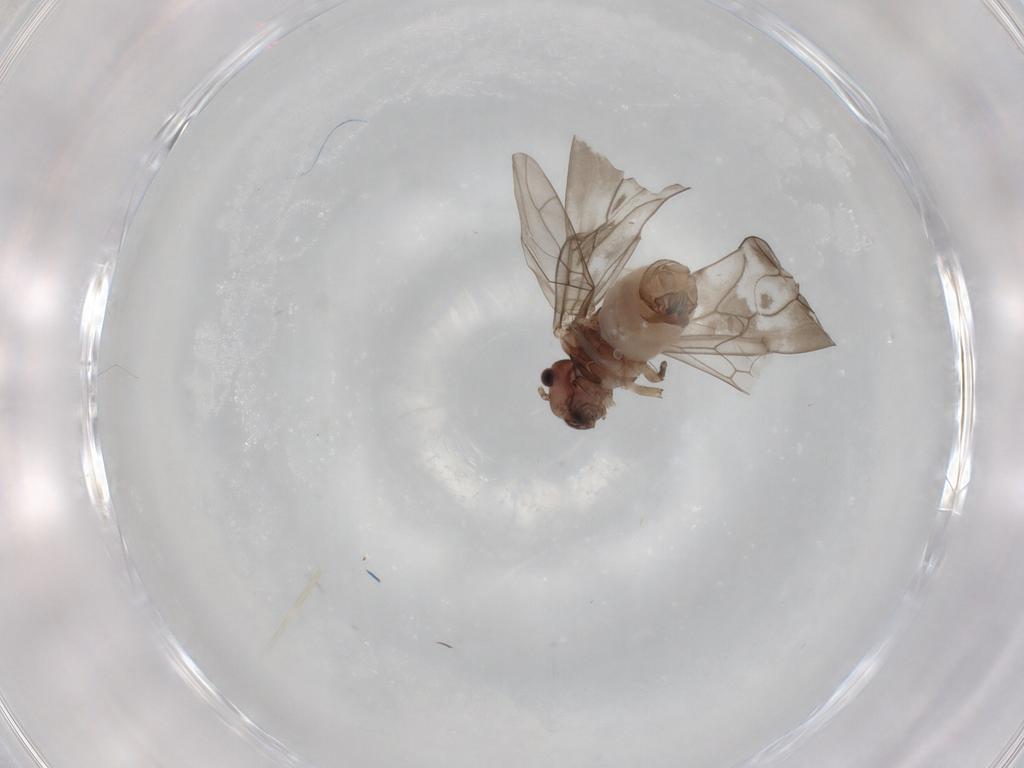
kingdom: Animalia
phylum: Arthropoda
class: Insecta
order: Psocodea
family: Peripsocidae
